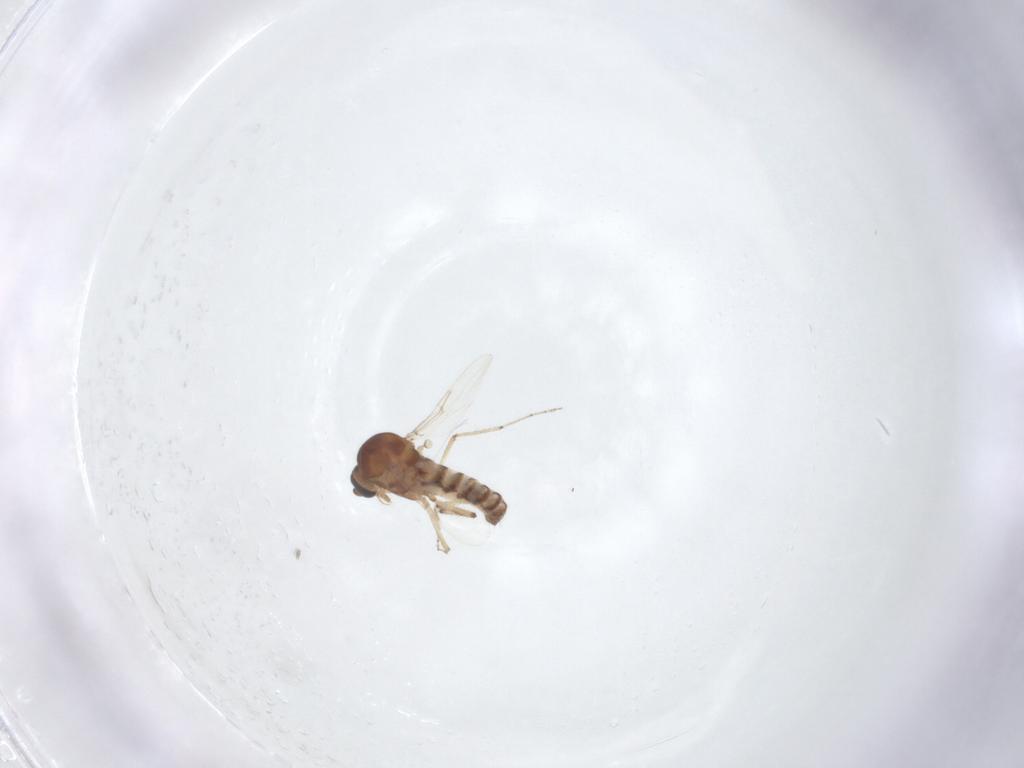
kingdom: Animalia
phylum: Arthropoda
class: Insecta
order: Diptera
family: Ceratopogonidae
